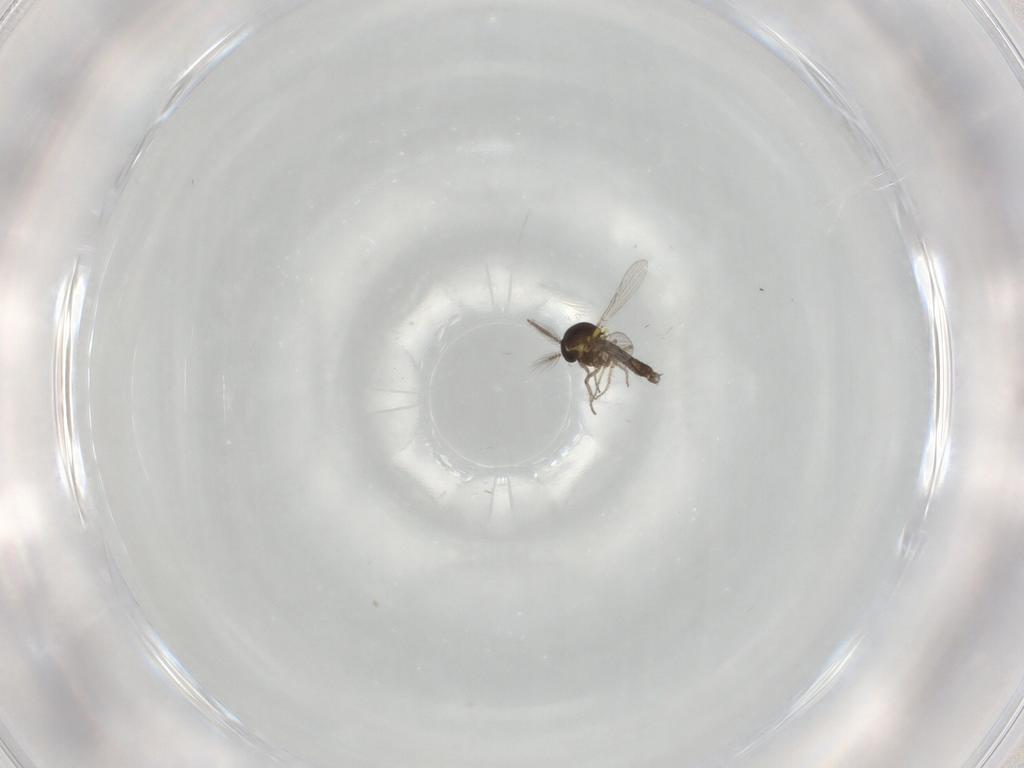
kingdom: Animalia
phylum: Arthropoda
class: Insecta
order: Diptera
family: Ceratopogonidae
